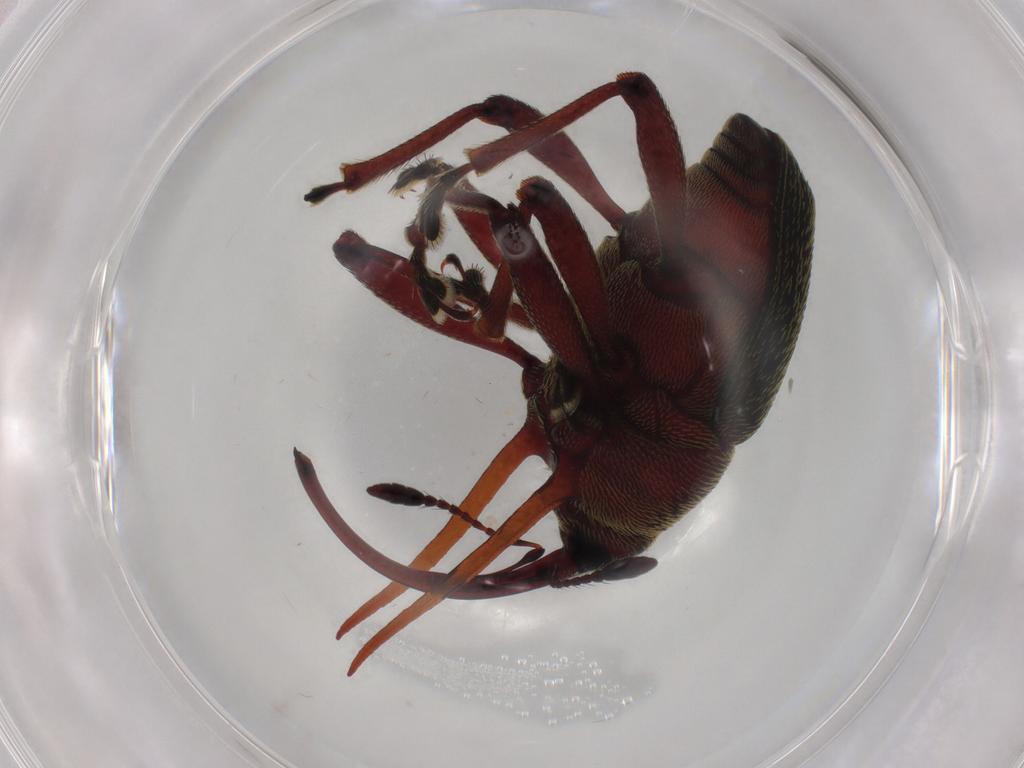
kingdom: Animalia
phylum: Arthropoda
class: Insecta
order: Coleoptera
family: Curculionidae
